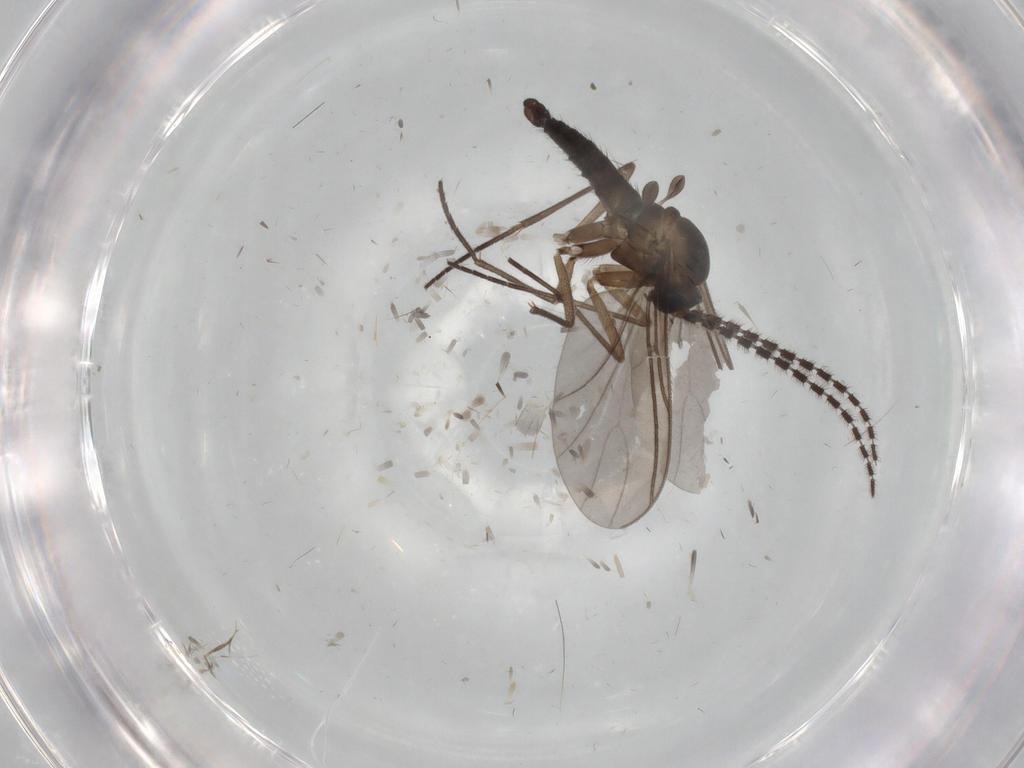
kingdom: Animalia
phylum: Arthropoda
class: Insecta
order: Diptera
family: Sciaridae
